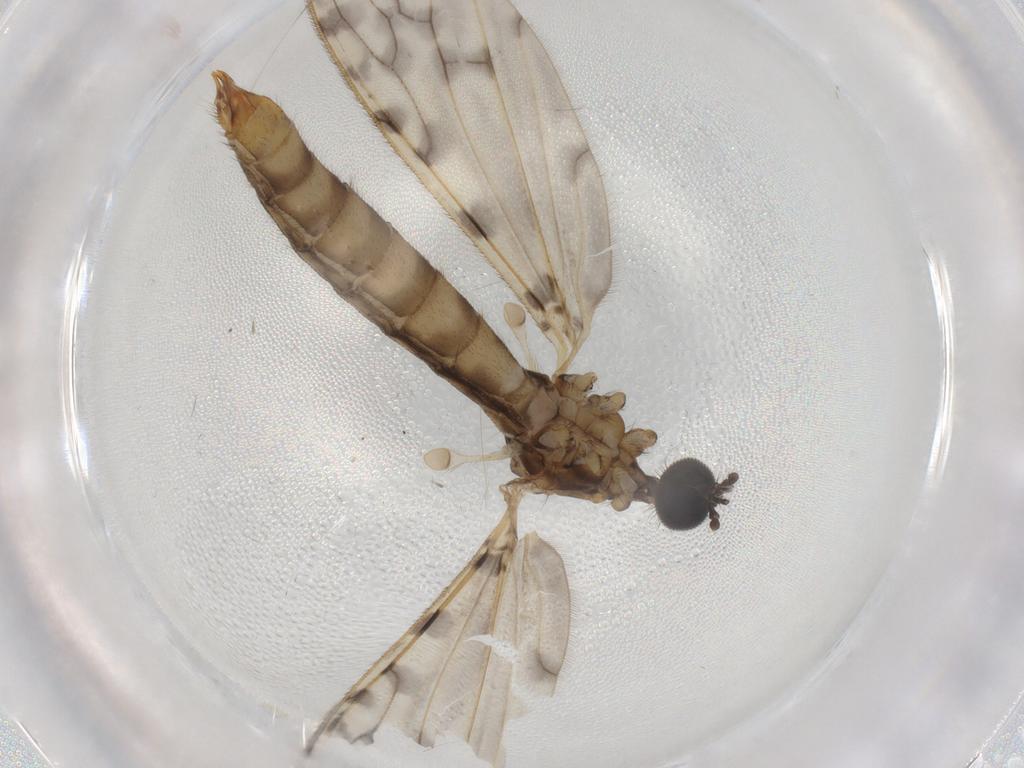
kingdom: Animalia
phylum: Arthropoda
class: Insecta
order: Diptera
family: Limoniidae
